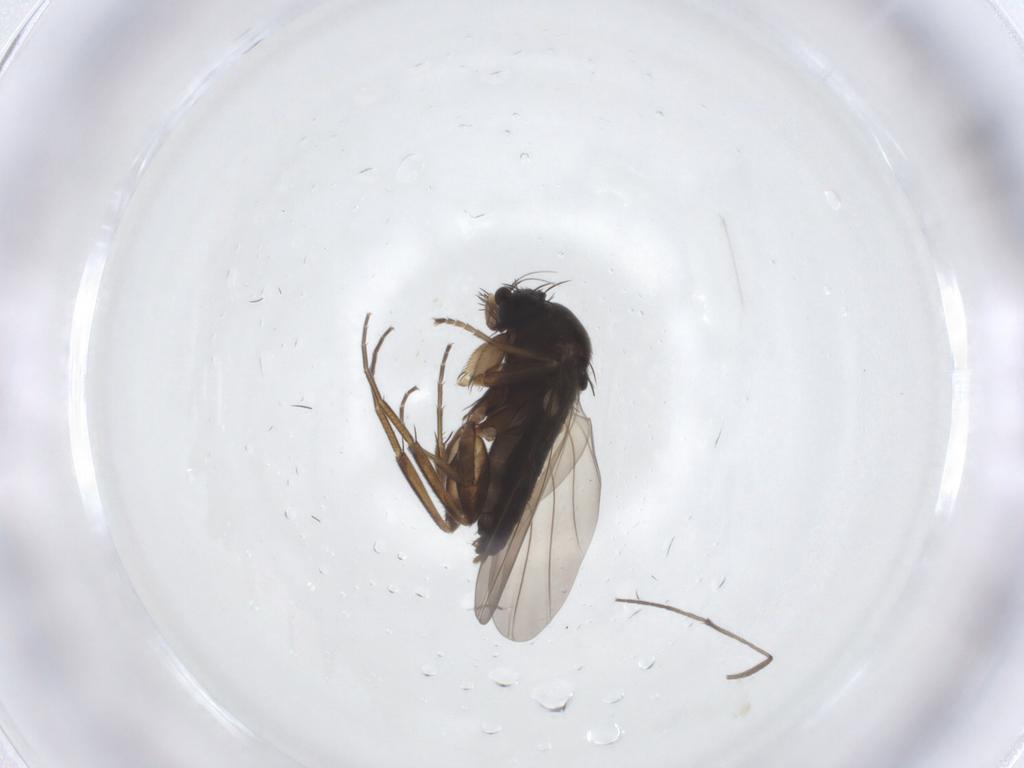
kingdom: Animalia
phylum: Arthropoda
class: Insecta
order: Diptera
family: Phoridae
